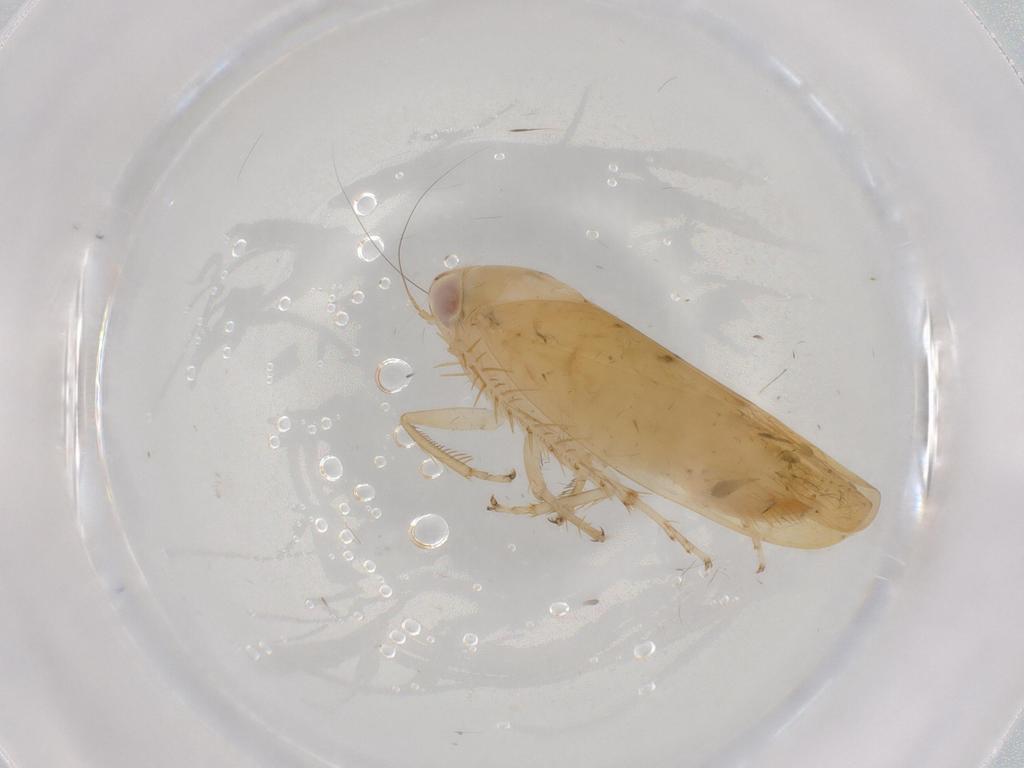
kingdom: Animalia
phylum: Arthropoda
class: Insecta
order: Hemiptera
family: Cicadellidae
